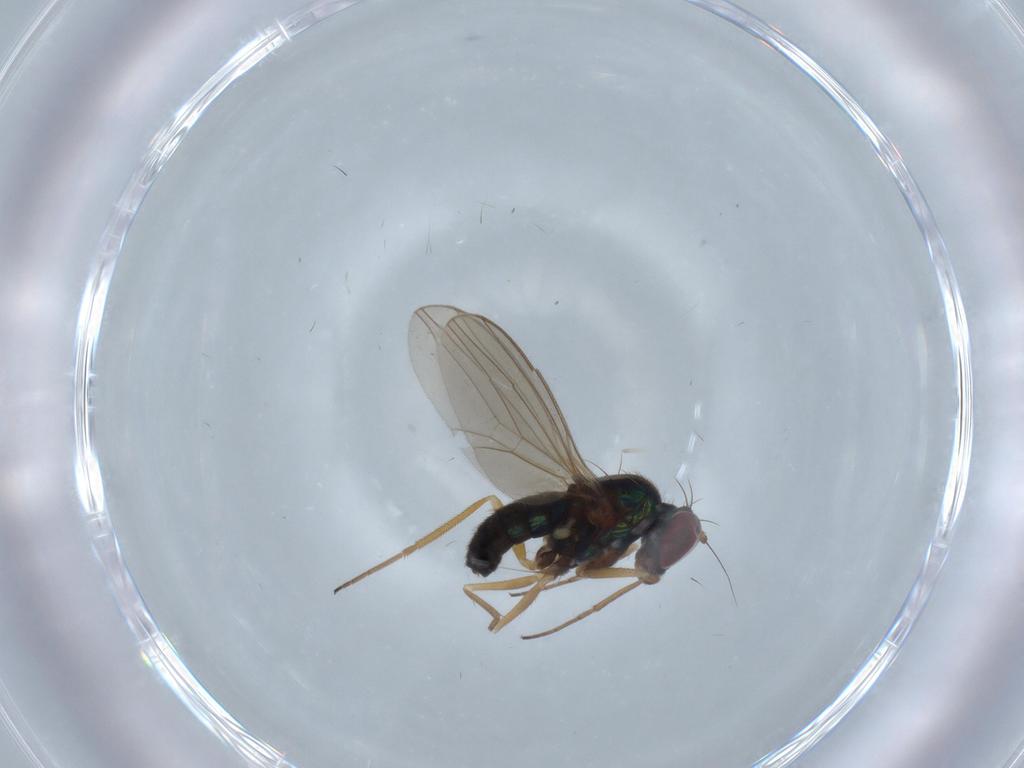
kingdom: Animalia
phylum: Arthropoda
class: Insecta
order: Diptera
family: Dolichopodidae
